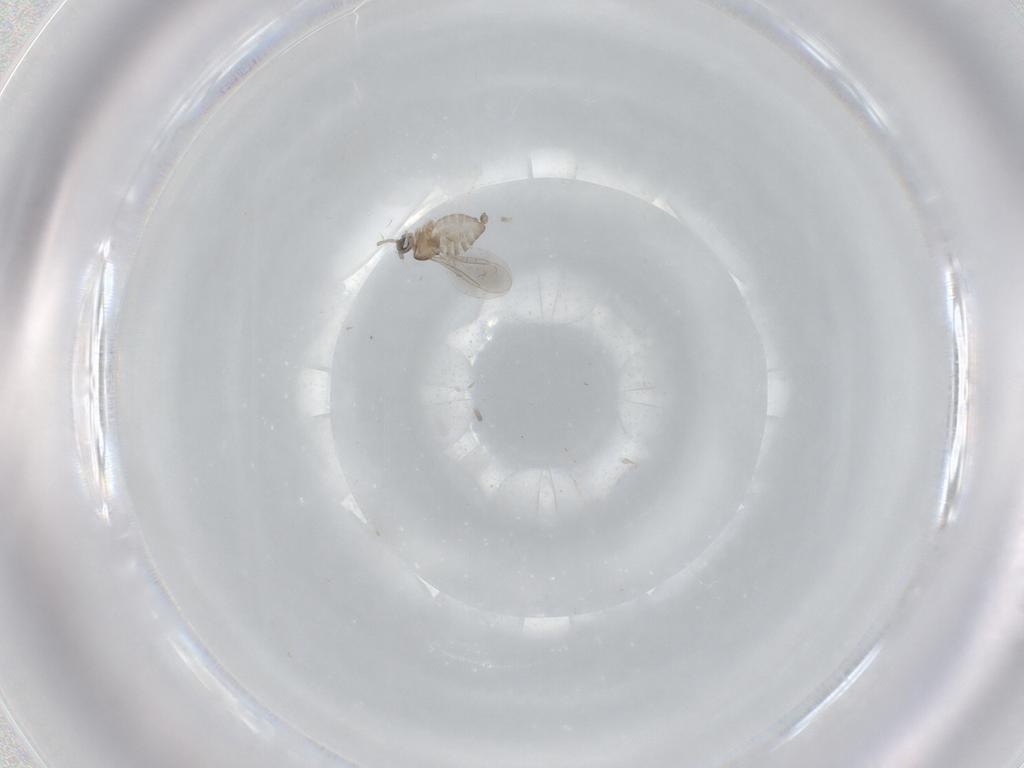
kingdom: Animalia
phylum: Arthropoda
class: Insecta
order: Diptera
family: Cecidomyiidae
